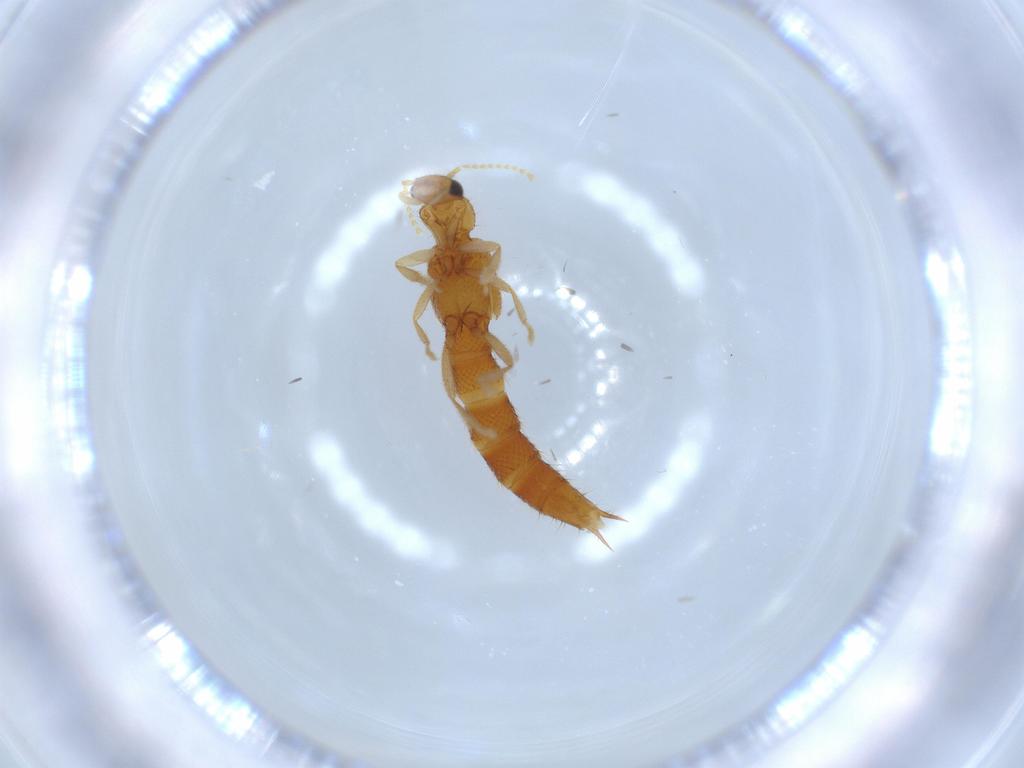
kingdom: Animalia
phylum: Arthropoda
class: Insecta
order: Coleoptera
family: Staphylinidae
